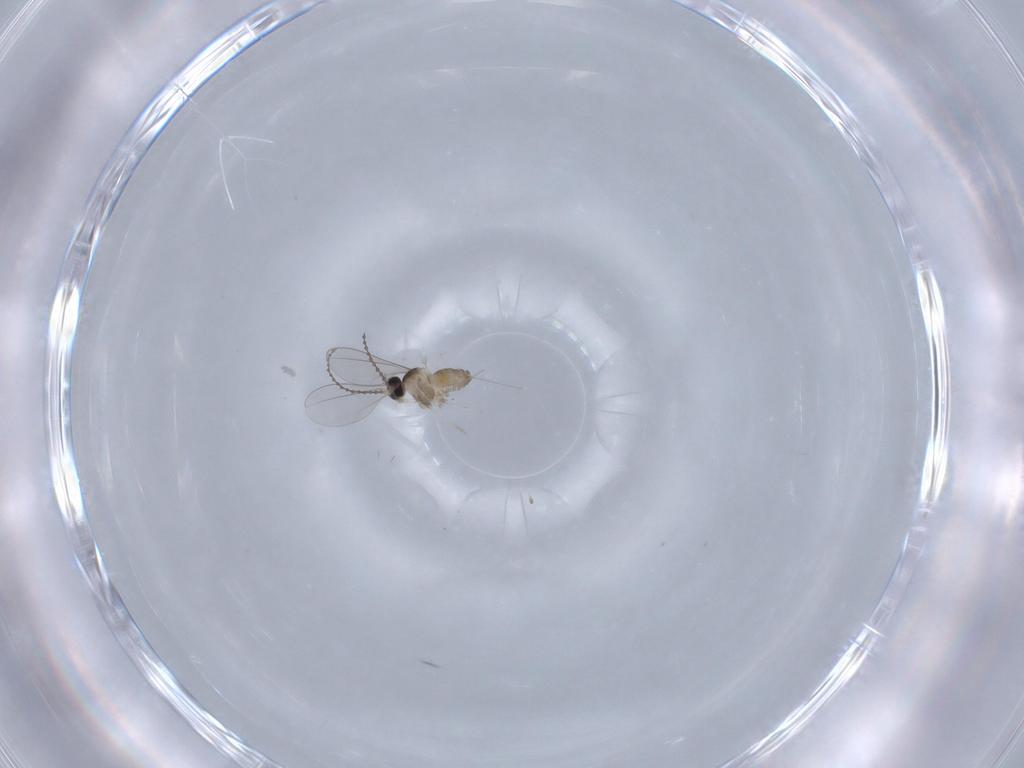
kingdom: Animalia
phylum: Arthropoda
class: Insecta
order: Diptera
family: Cecidomyiidae
